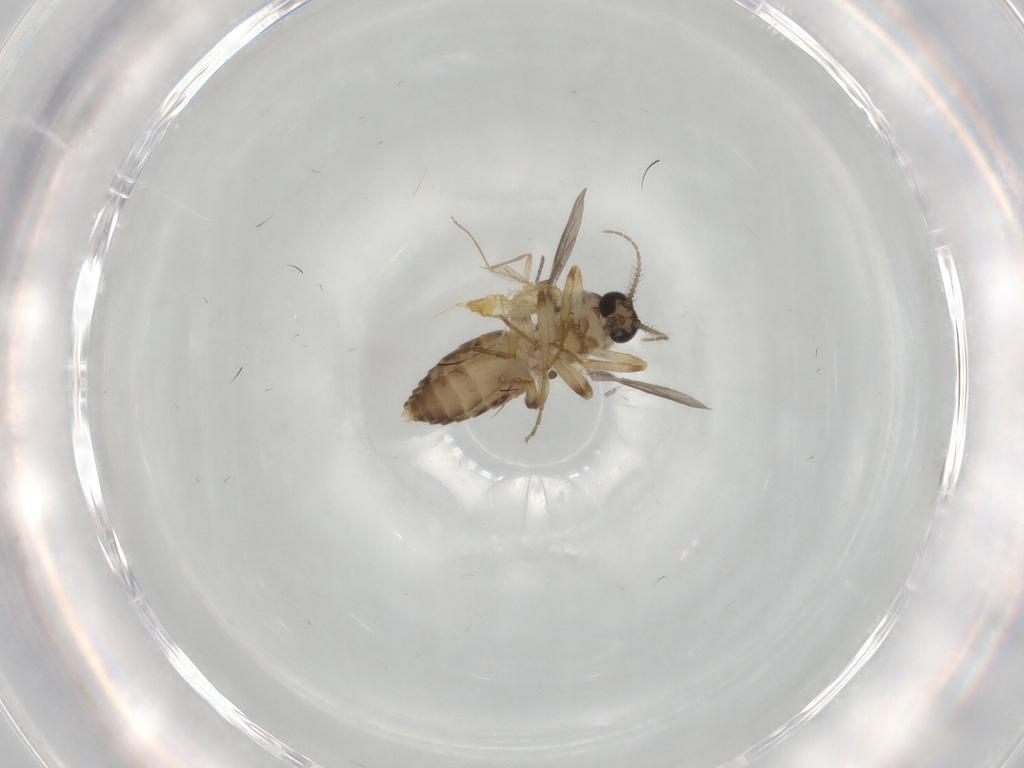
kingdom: Animalia
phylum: Arthropoda
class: Insecta
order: Diptera
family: Ceratopogonidae
